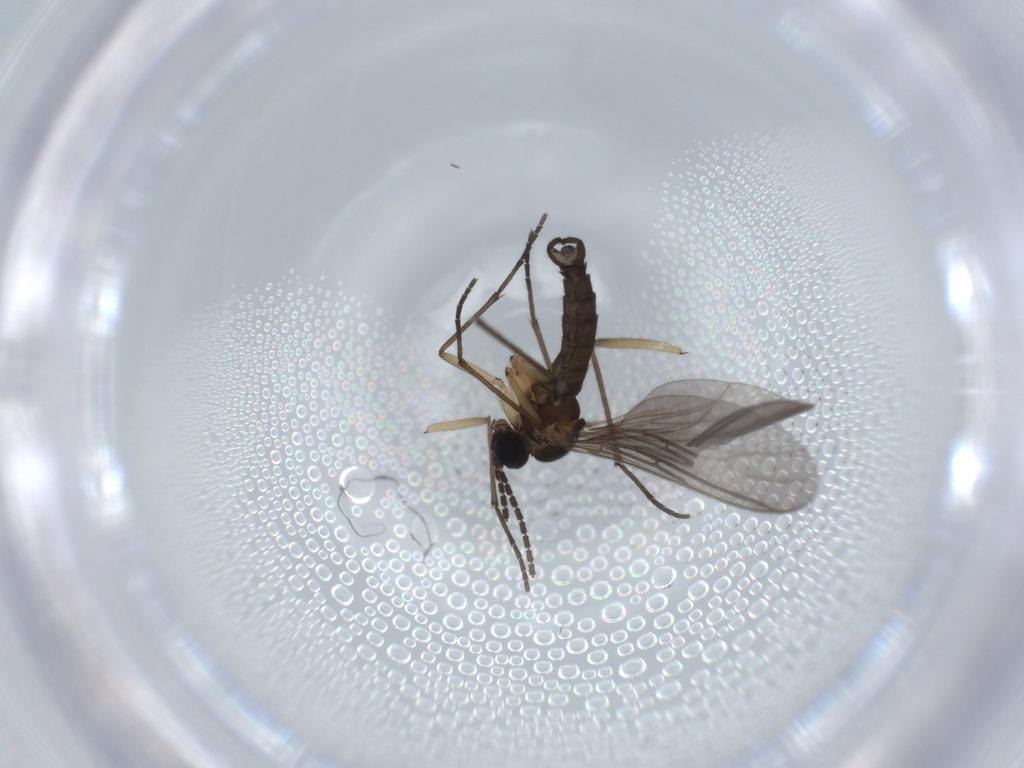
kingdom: Animalia
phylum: Arthropoda
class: Insecta
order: Diptera
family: Sciaridae
